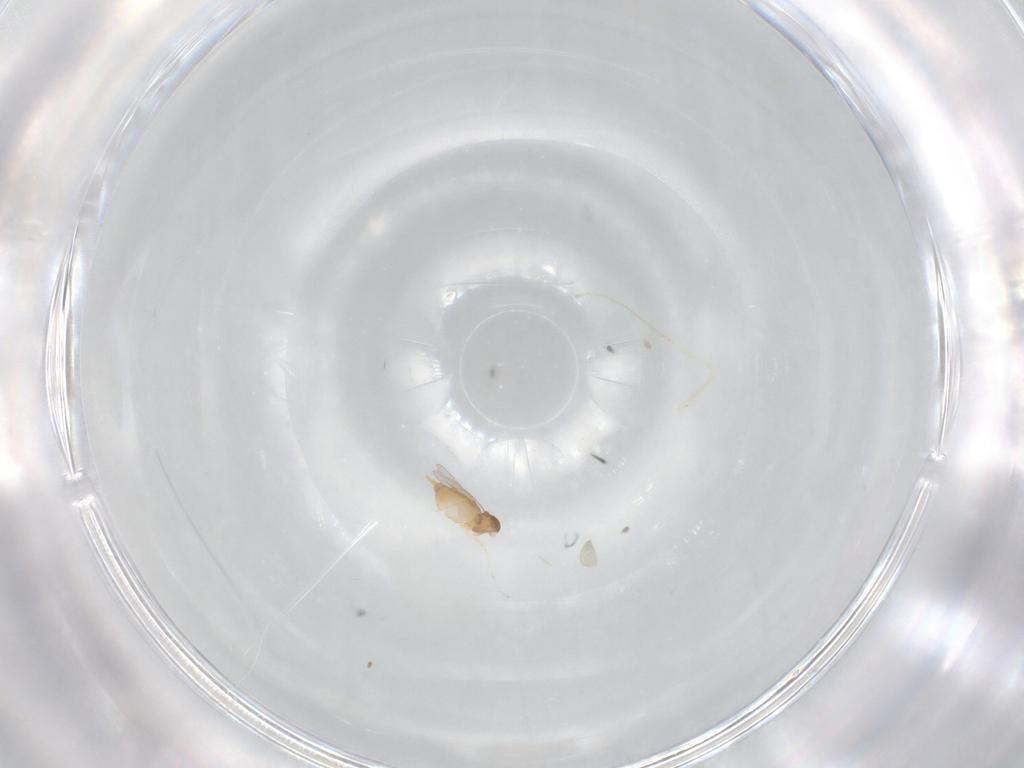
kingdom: Animalia
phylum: Arthropoda
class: Insecta
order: Diptera
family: Cecidomyiidae
